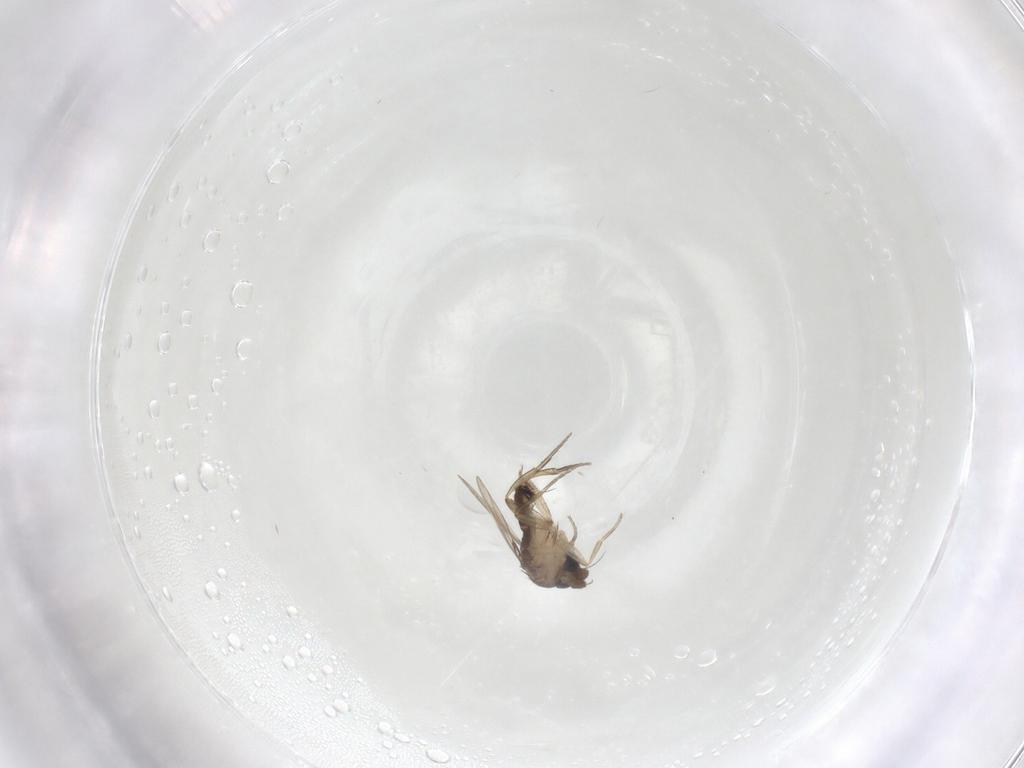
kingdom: Animalia
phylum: Arthropoda
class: Insecta
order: Diptera
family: Phoridae
